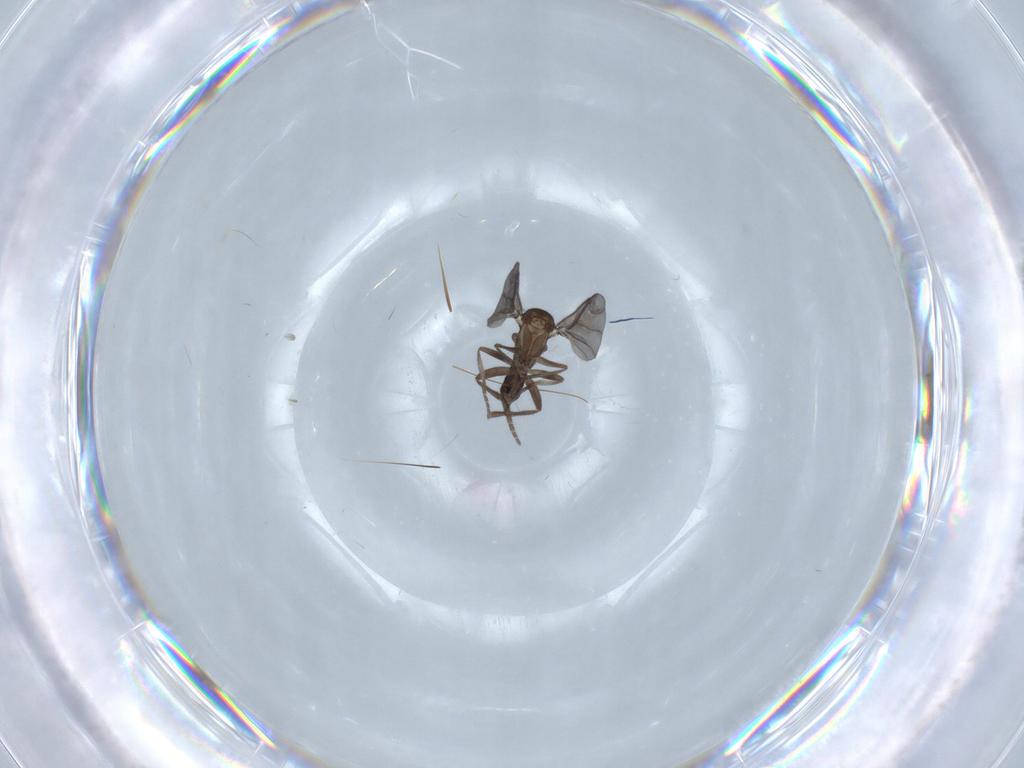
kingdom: Animalia
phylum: Arthropoda
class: Insecta
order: Diptera
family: Phoridae
